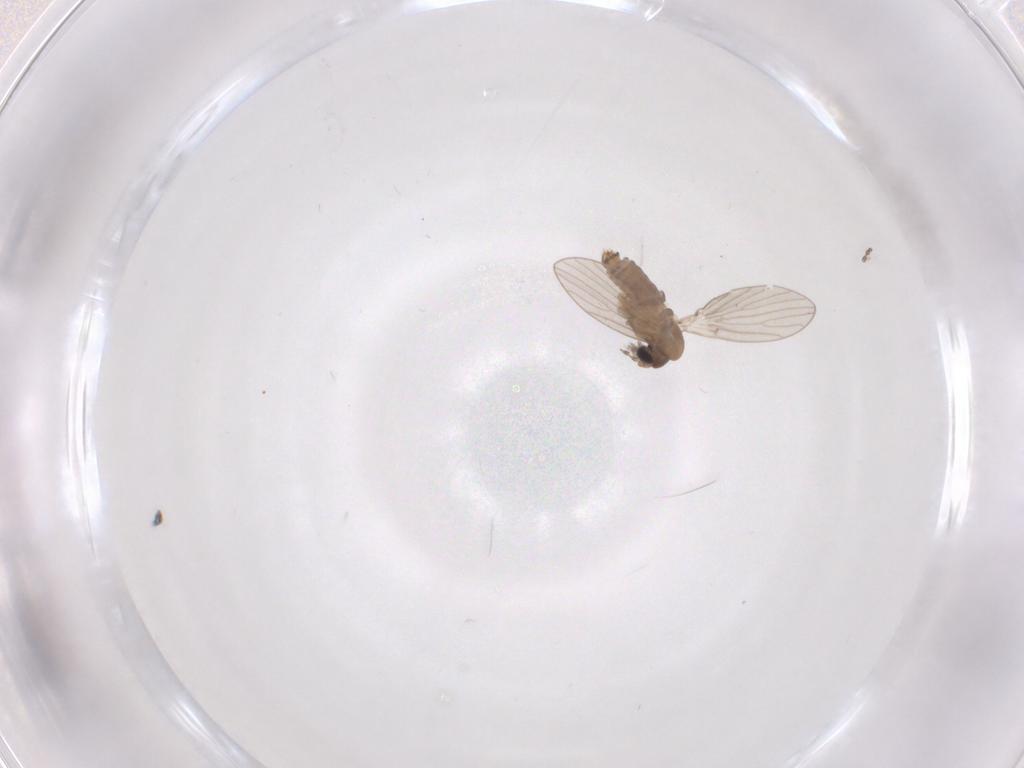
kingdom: Animalia
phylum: Arthropoda
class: Insecta
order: Diptera
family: Psychodidae
